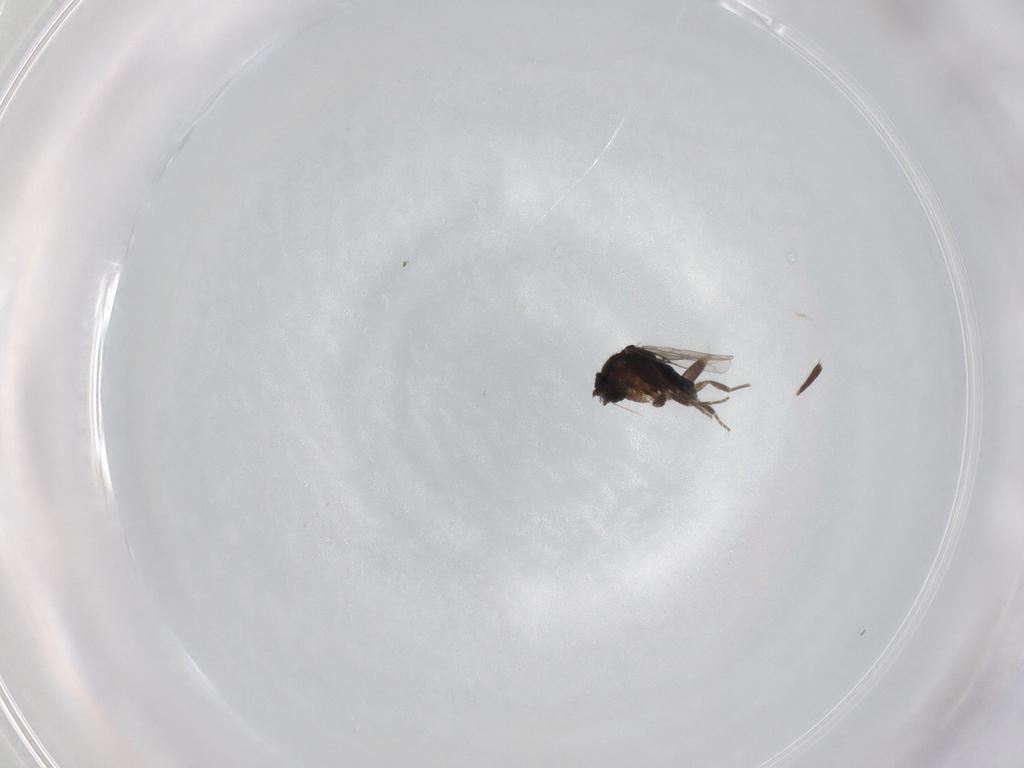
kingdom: Animalia
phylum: Arthropoda
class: Insecta
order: Diptera
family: Phoridae
